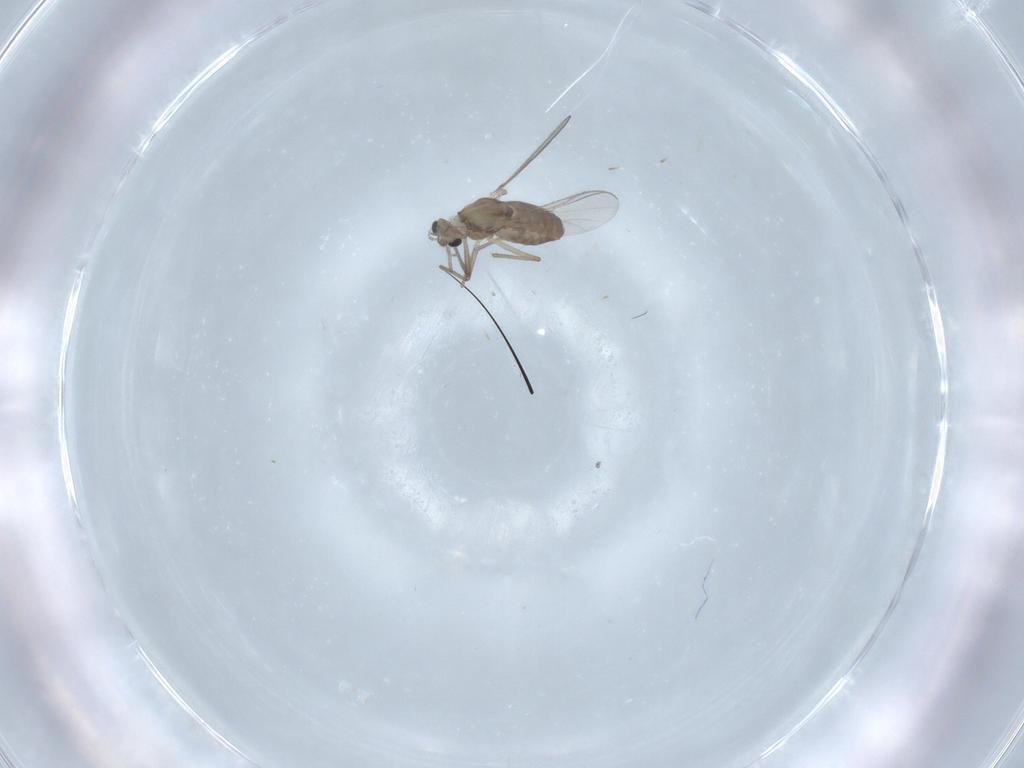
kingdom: Animalia
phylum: Arthropoda
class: Insecta
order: Diptera
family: Chironomidae
